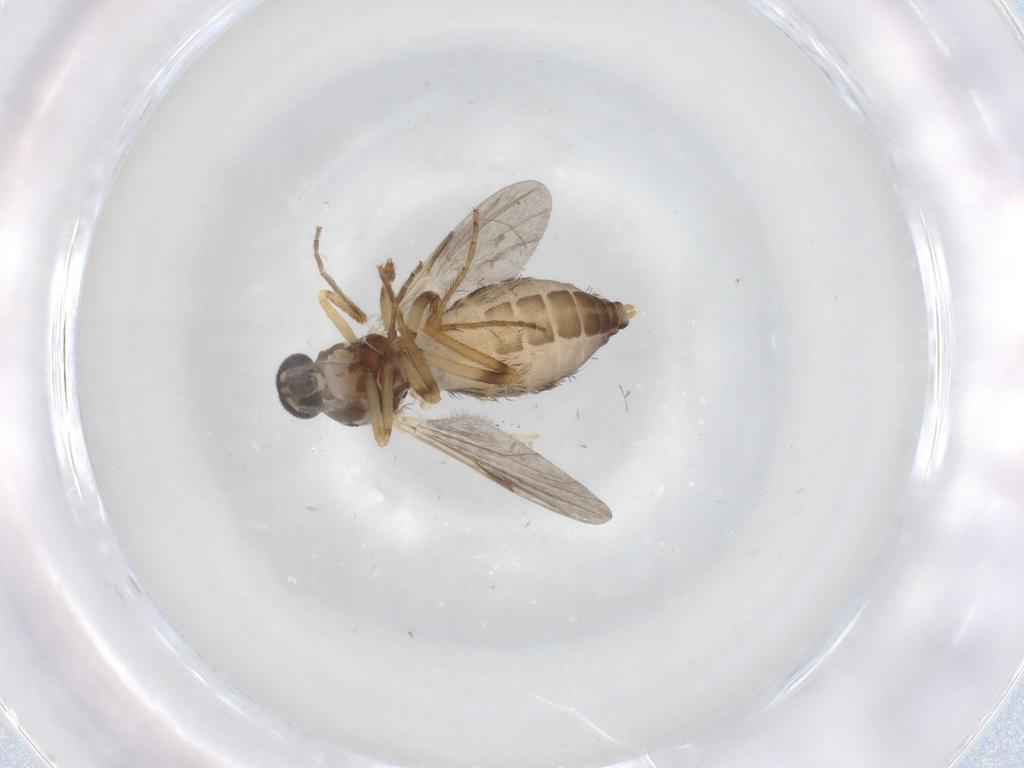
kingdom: Animalia
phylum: Arthropoda
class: Insecta
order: Diptera
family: Ceratopogonidae
